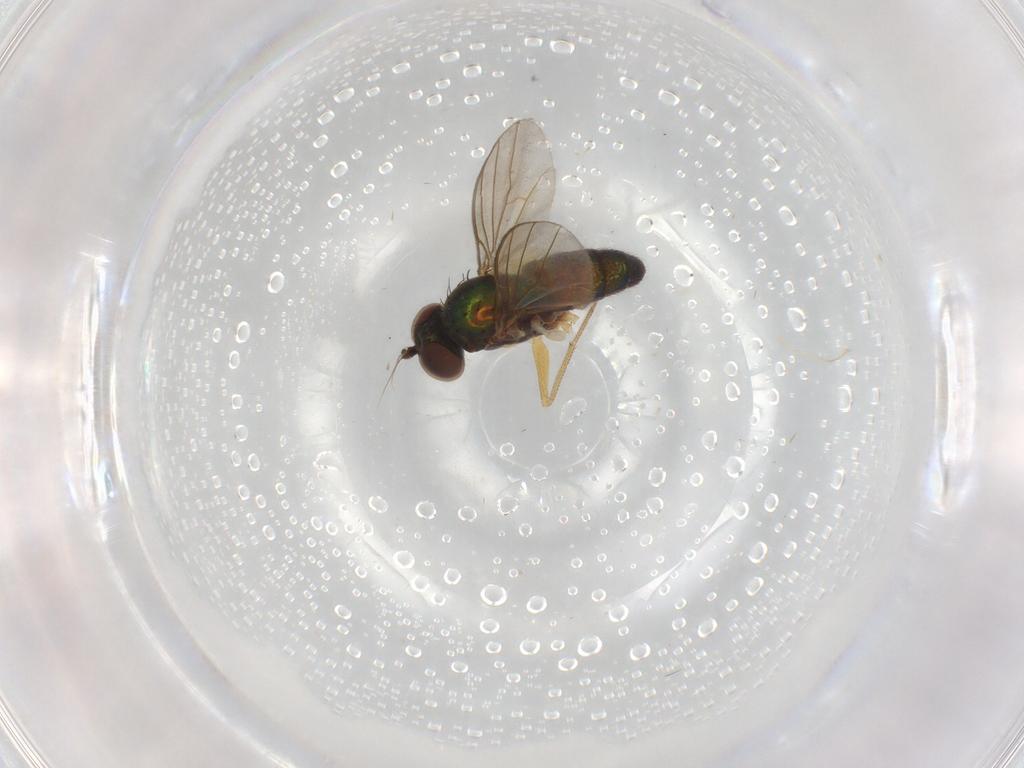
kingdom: Animalia
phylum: Arthropoda
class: Insecta
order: Diptera
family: Dolichopodidae
